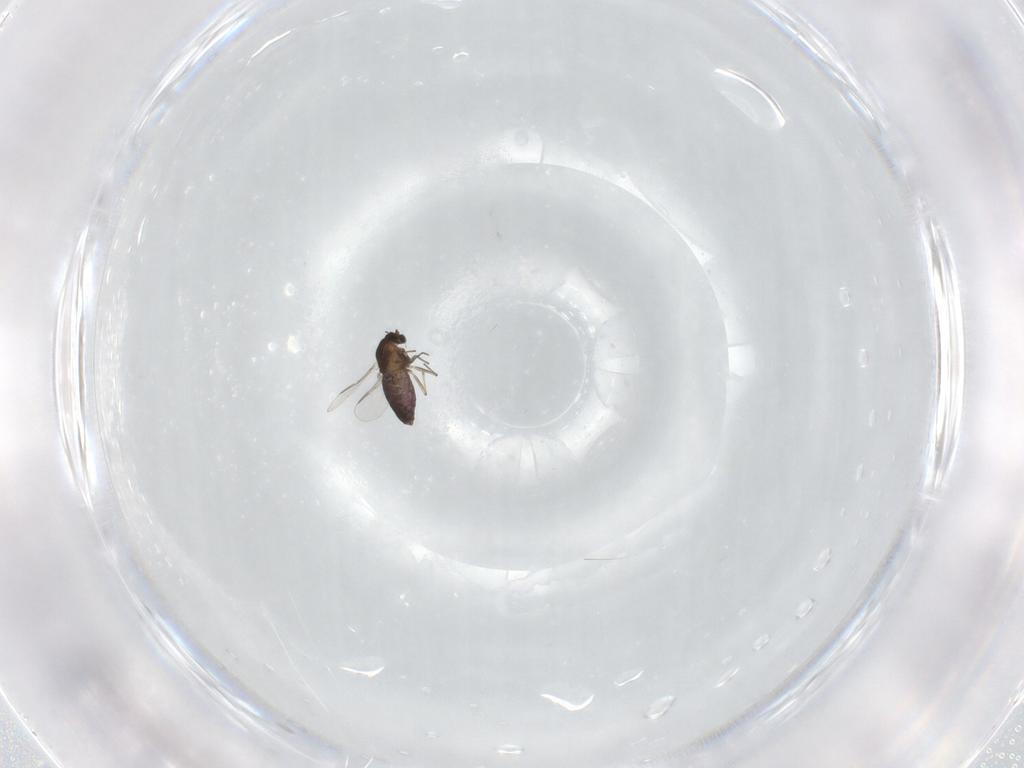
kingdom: Animalia
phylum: Arthropoda
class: Insecta
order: Diptera
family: Chironomidae
